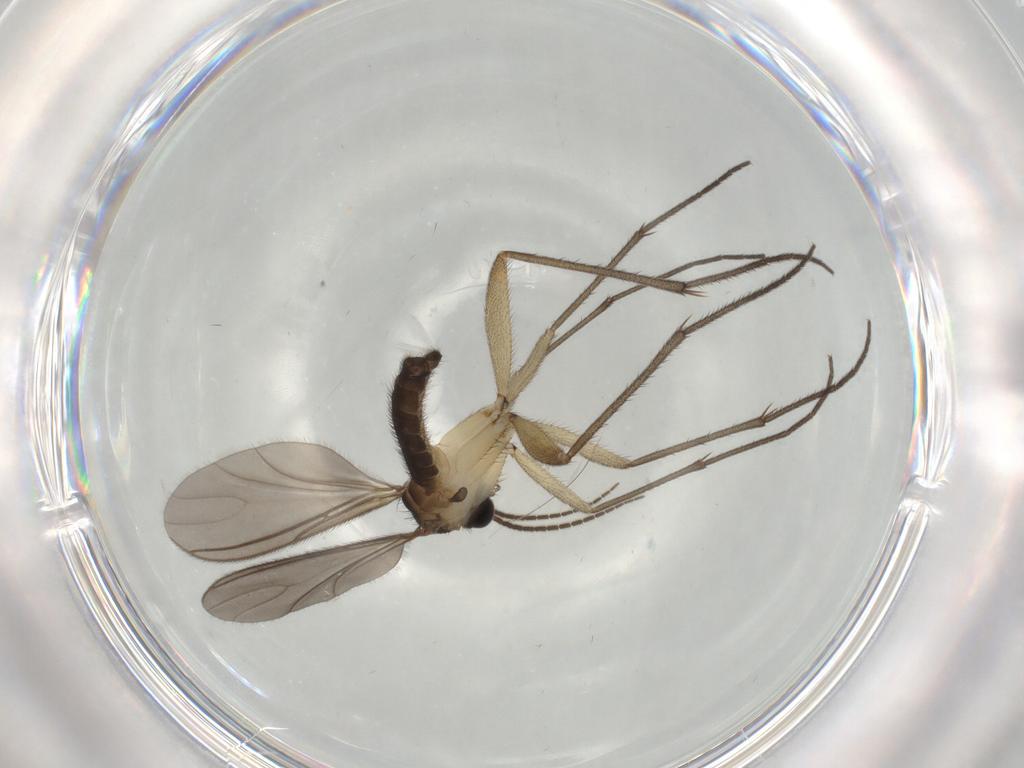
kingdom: Animalia
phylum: Arthropoda
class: Insecta
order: Diptera
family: Sciaridae
